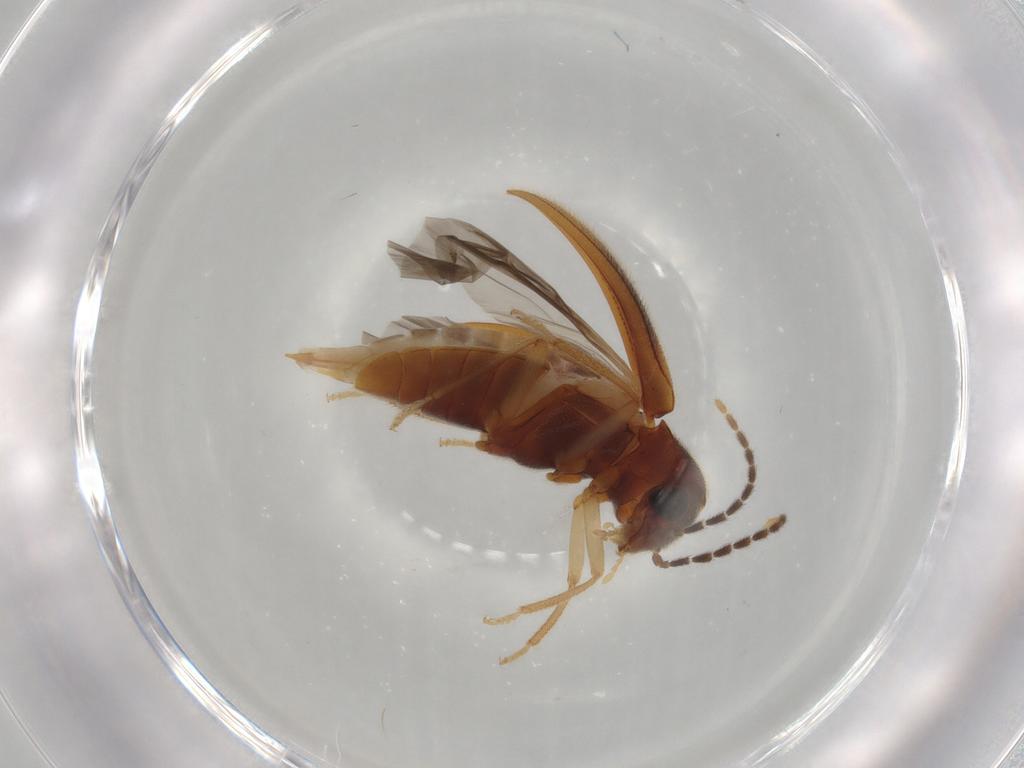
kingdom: Animalia
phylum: Arthropoda
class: Insecta
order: Coleoptera
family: Ptilodactylidae
